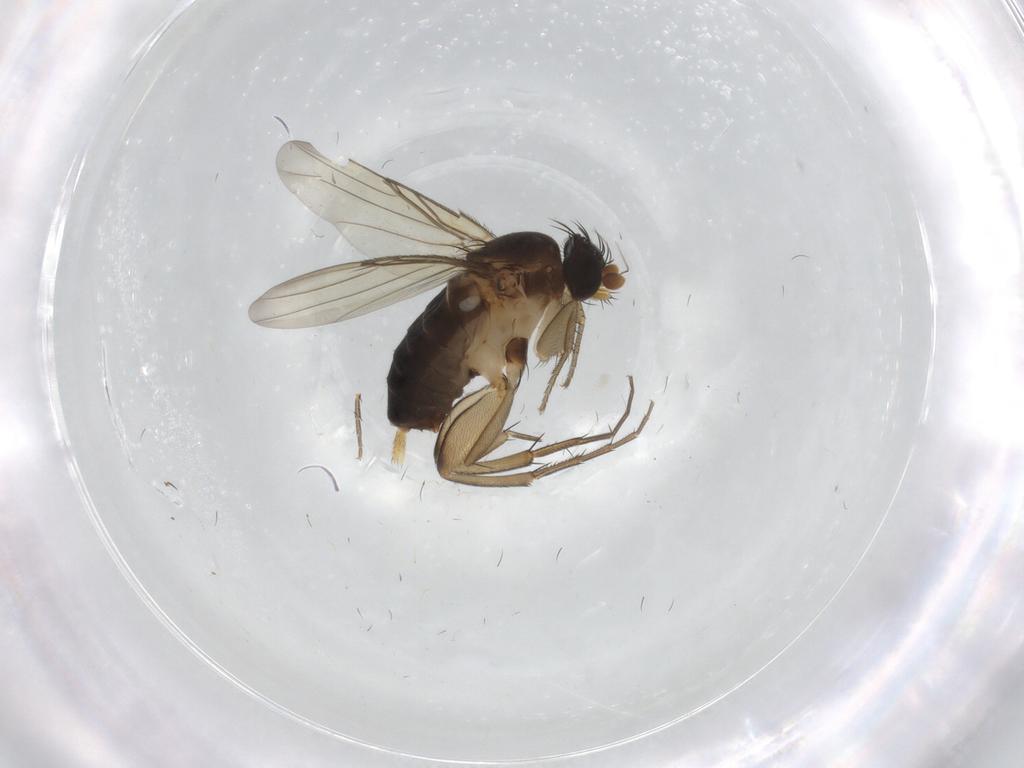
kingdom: Animalia
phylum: Arthropoda
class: Insecta
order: Diptera
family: Phoridae
